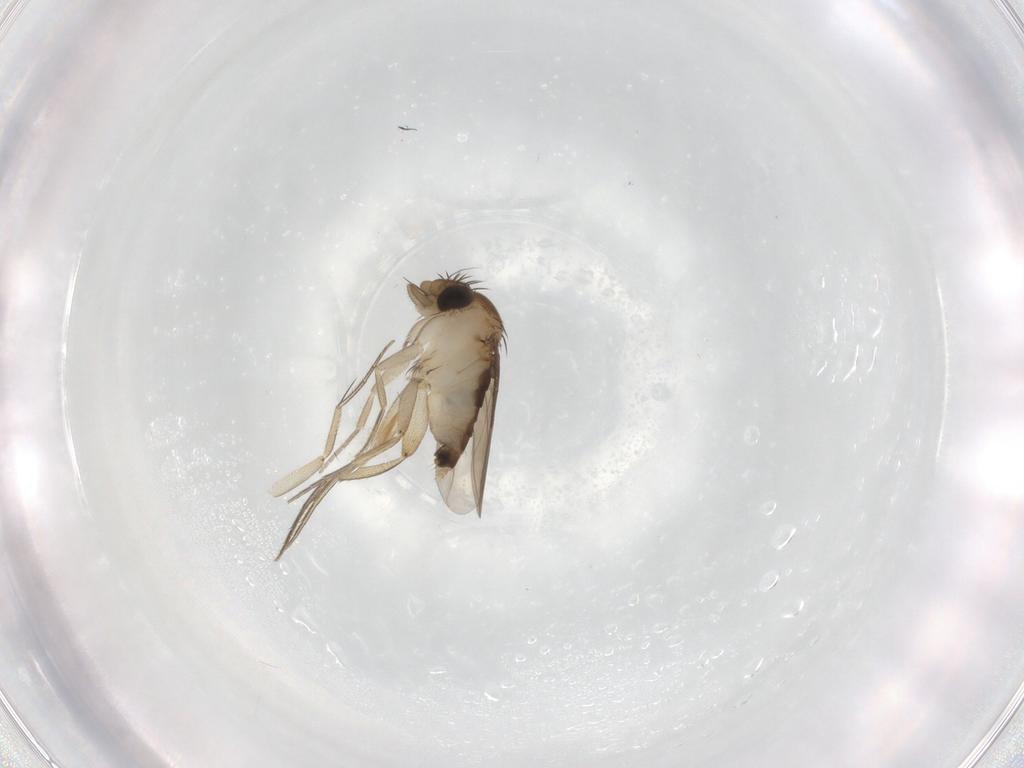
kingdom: Animalia
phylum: Arthropoda
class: Insecta
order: Diptera
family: Phoridae
